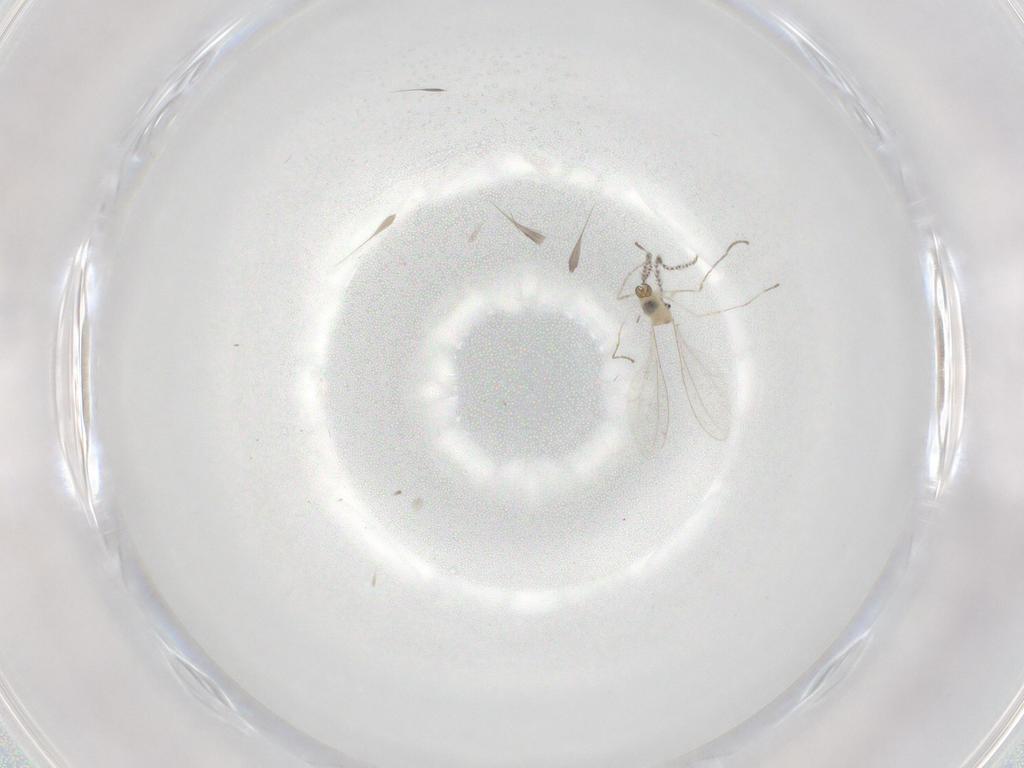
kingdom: Animalia
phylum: Arthropoda
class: Insecta
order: Diptera
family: Cecidomyiidae
